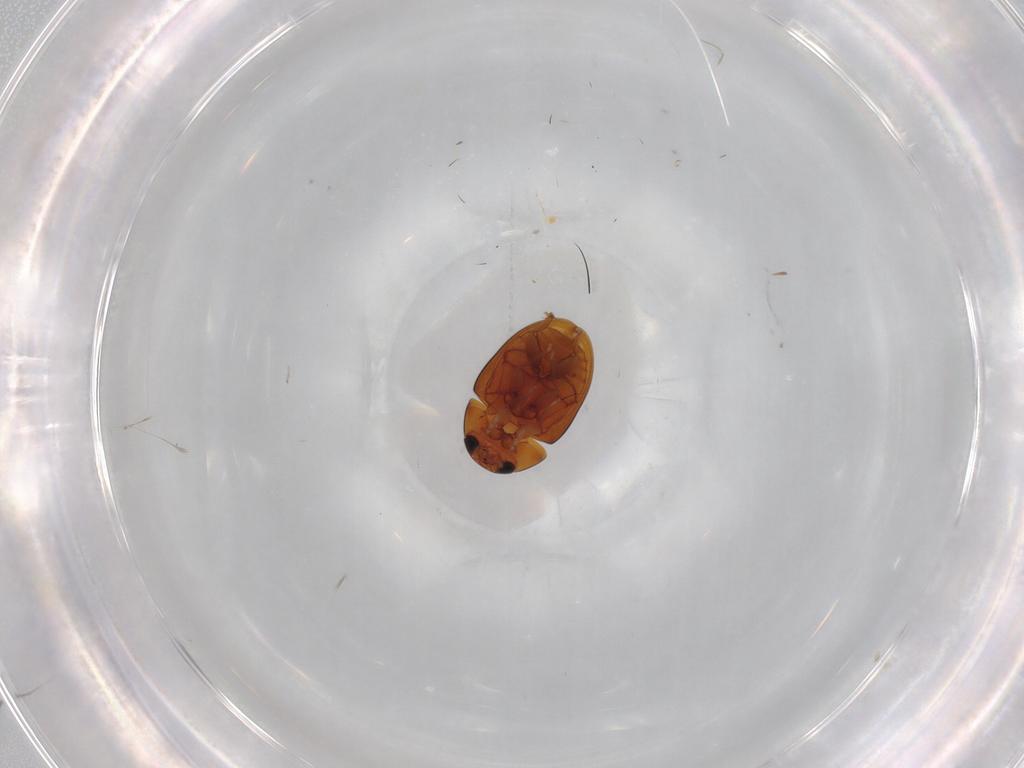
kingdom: Animalia
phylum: Arthropoda
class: Insecta
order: Coleoptera
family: Phalacridae
